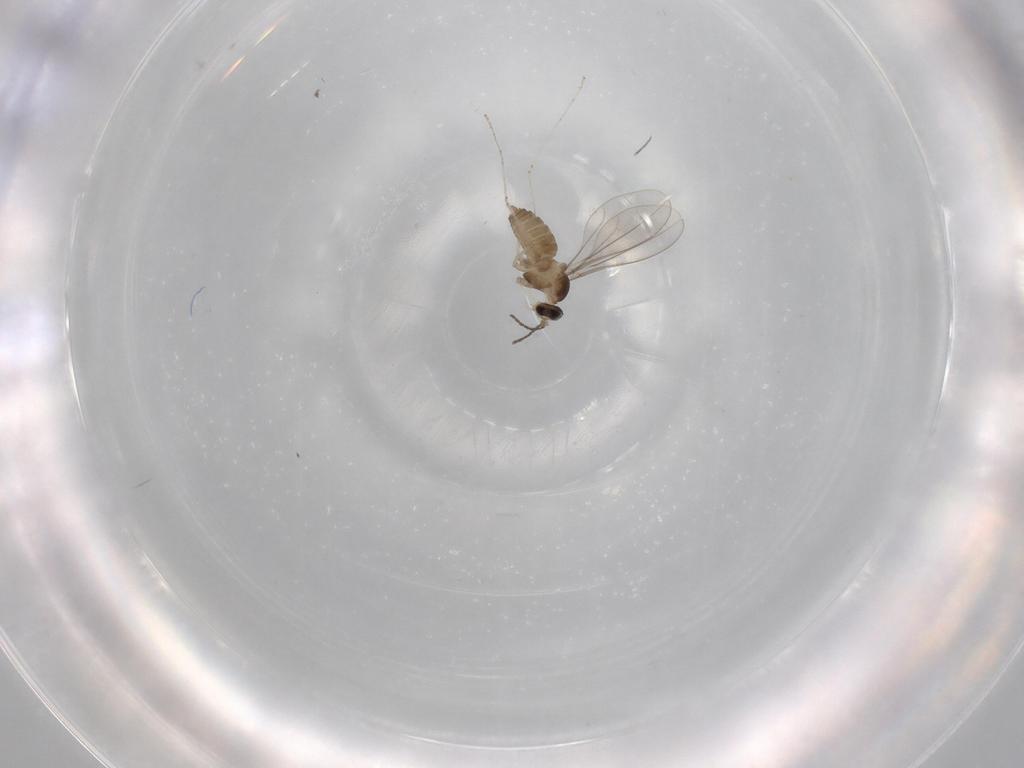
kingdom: Animalia
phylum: Arthropoda
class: Insecta
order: Diptera
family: Cecidomyiidae
